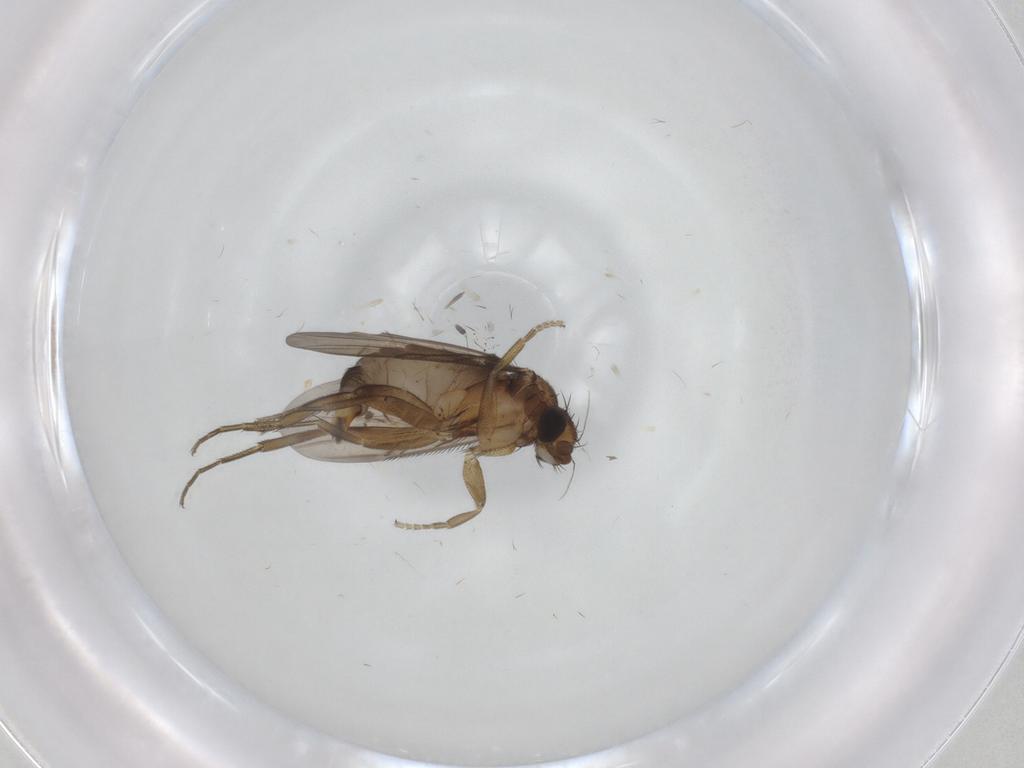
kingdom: Animalia
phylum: Arthropoda
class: Insecta
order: Diptera
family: Phoridae
